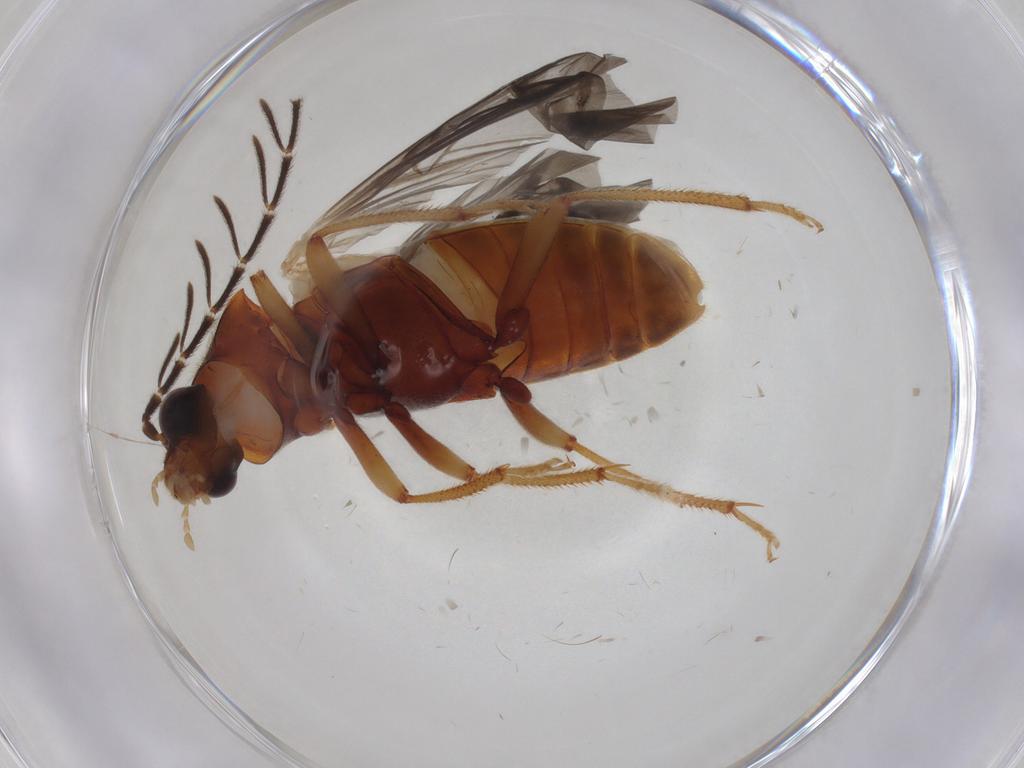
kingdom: Animalia
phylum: Arthropoda
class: Insecta
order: Coleoptera
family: Ptilodactylidae
